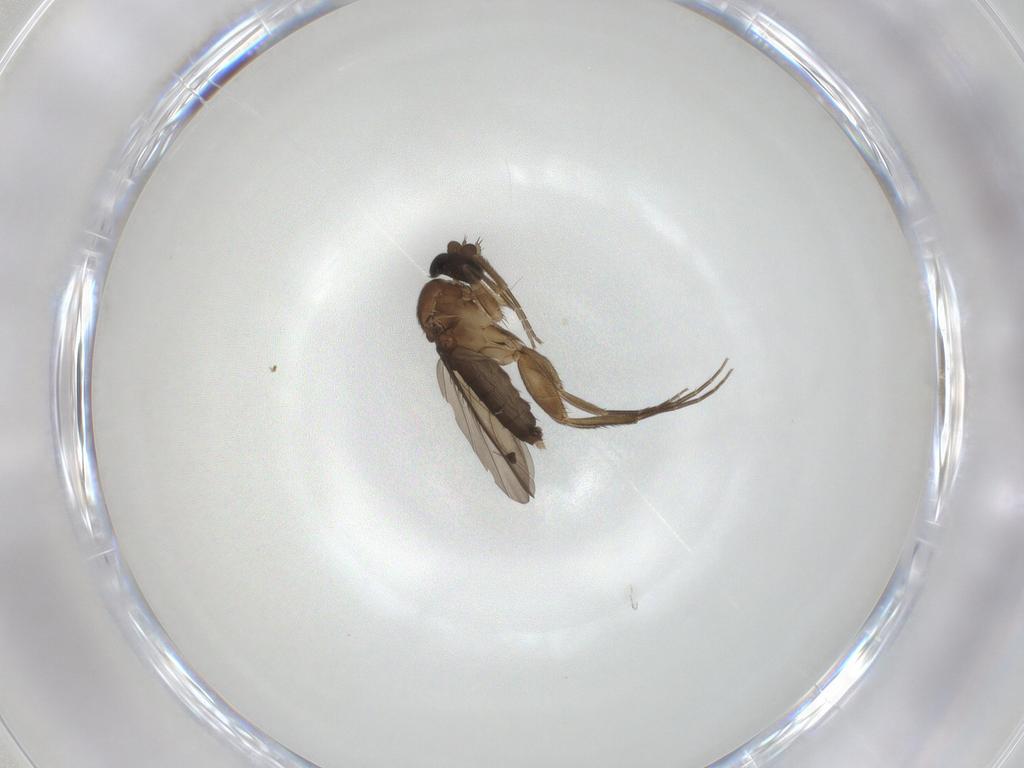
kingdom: Animalia
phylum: Arthropoda
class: Insecta
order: Diptera
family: Phoridae
